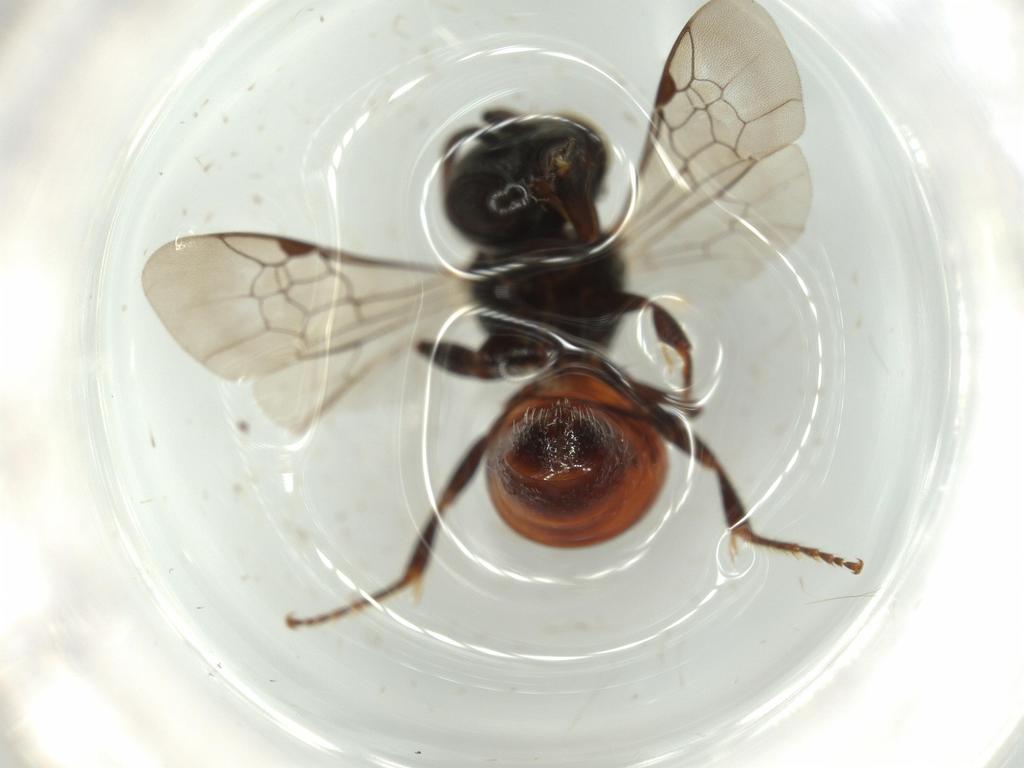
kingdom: Animalia
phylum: Arthropoda
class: Insecta
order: Hymenoptera
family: Halictidae
